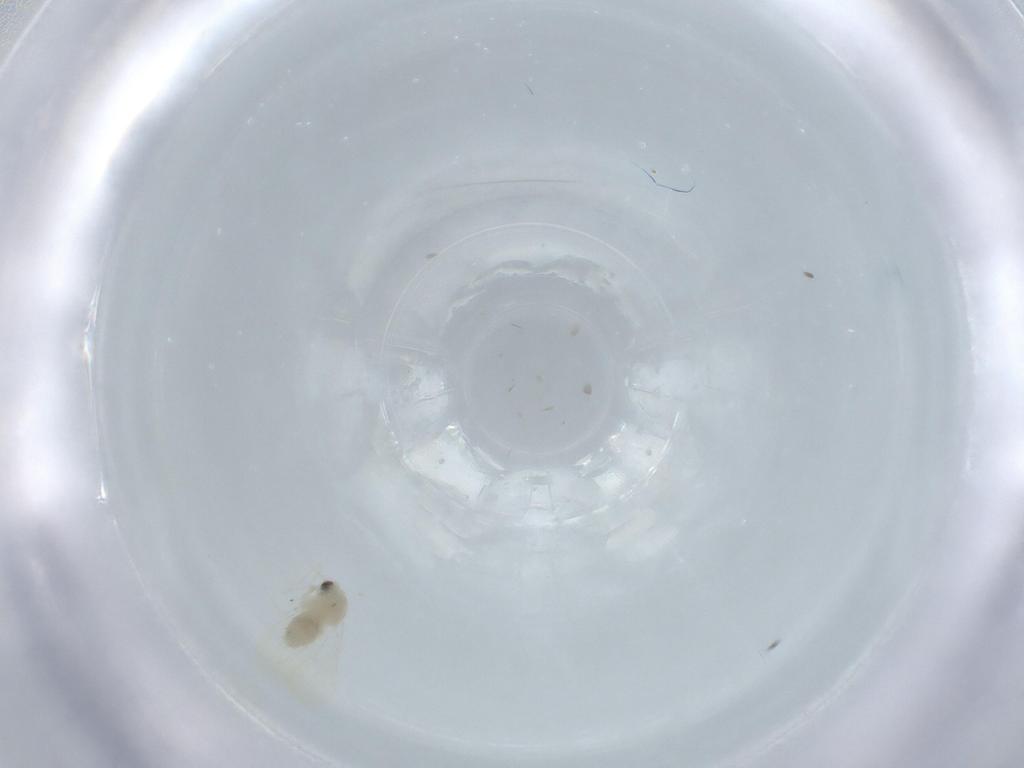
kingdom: Animalia
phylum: Arthropoda
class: Insecta
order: Hemiptera
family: Aleyrodidae
